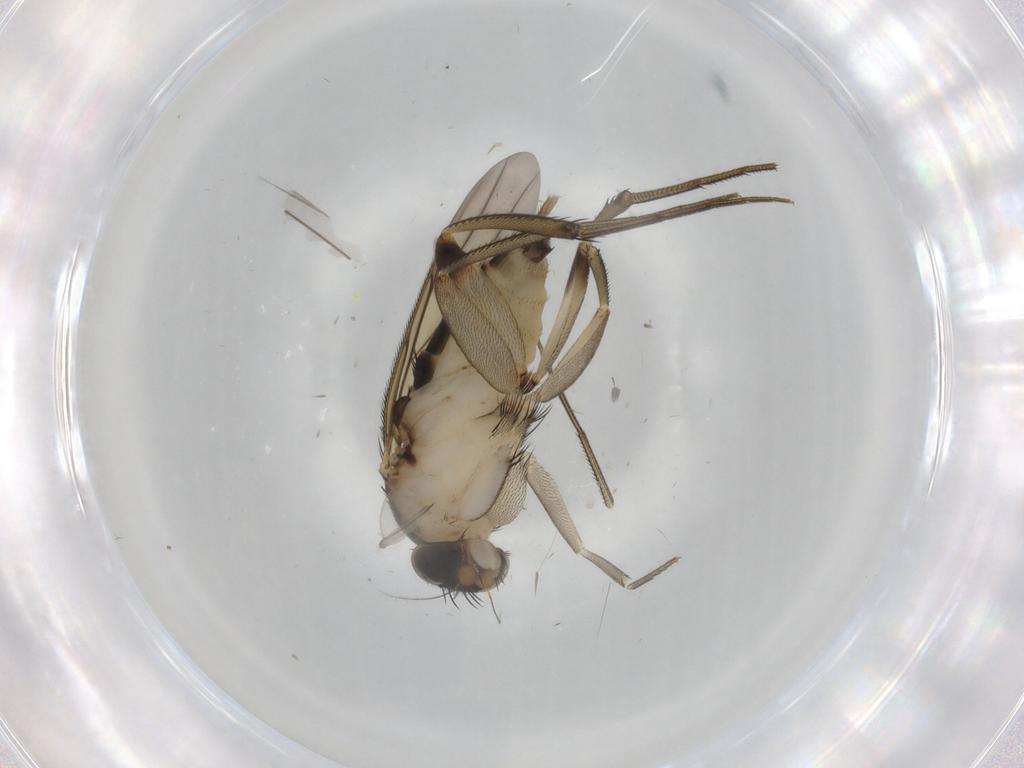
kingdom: Animalia
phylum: Arthropoda
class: Insecta
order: Diptera
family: Phoridae
